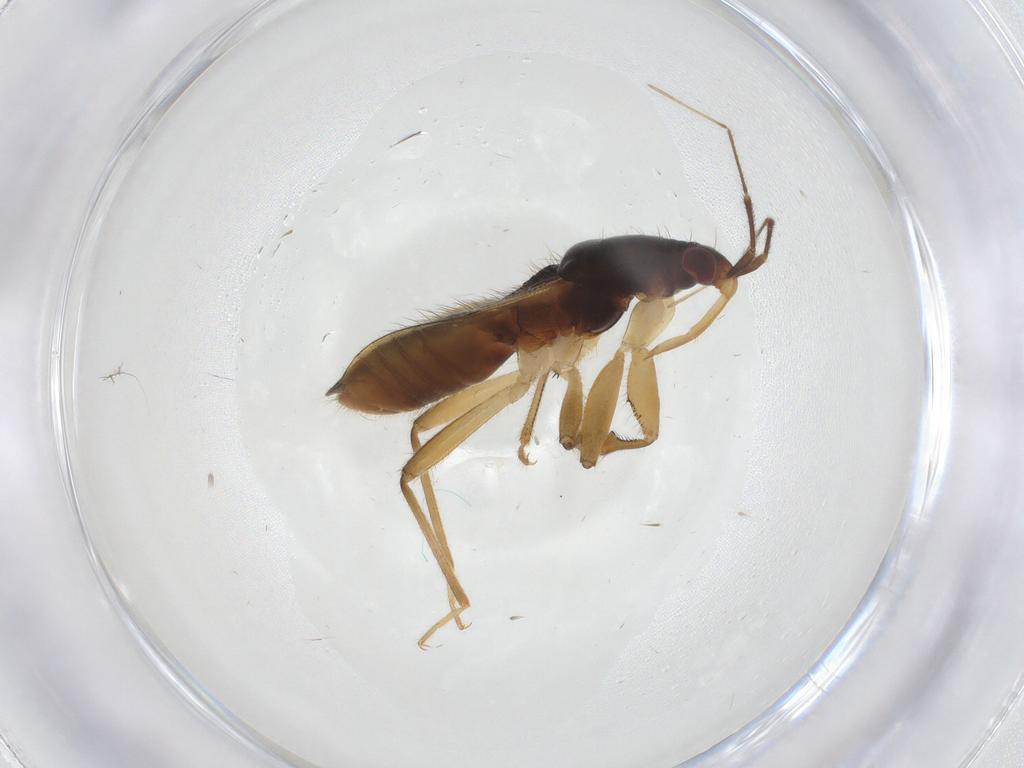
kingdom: Animalia
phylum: Arthropoda
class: Insecta
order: Hemiptera
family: Nabidae
